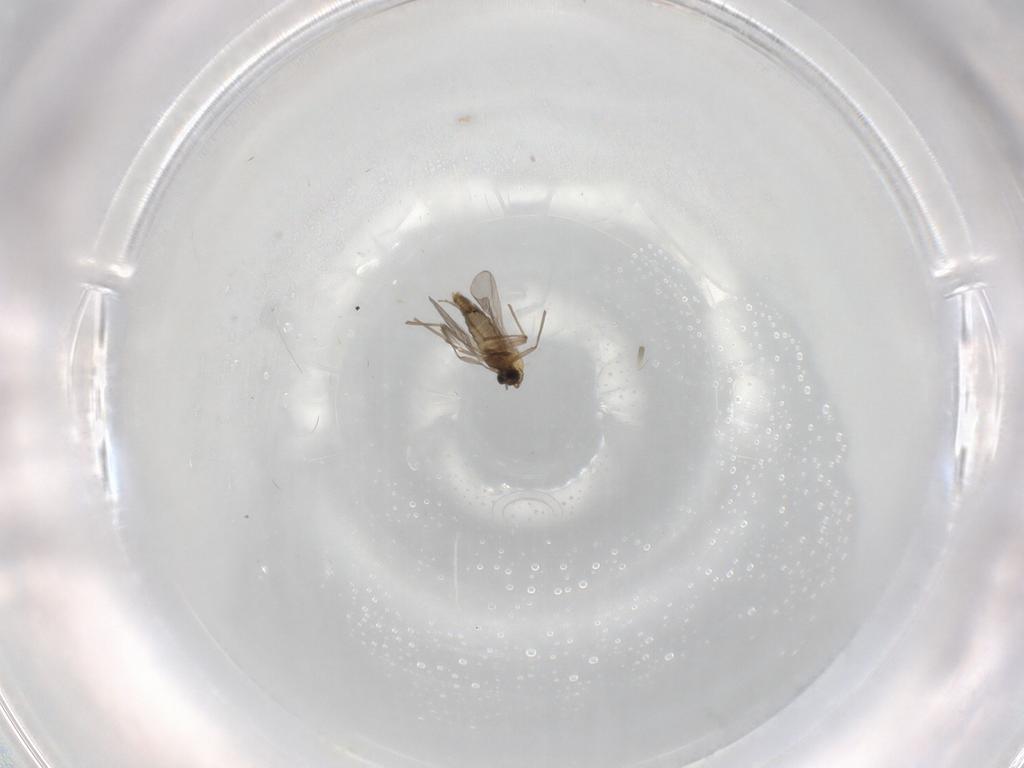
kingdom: Animalia
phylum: Arthropoda
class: Insecta
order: Diptera
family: Chironomidae
